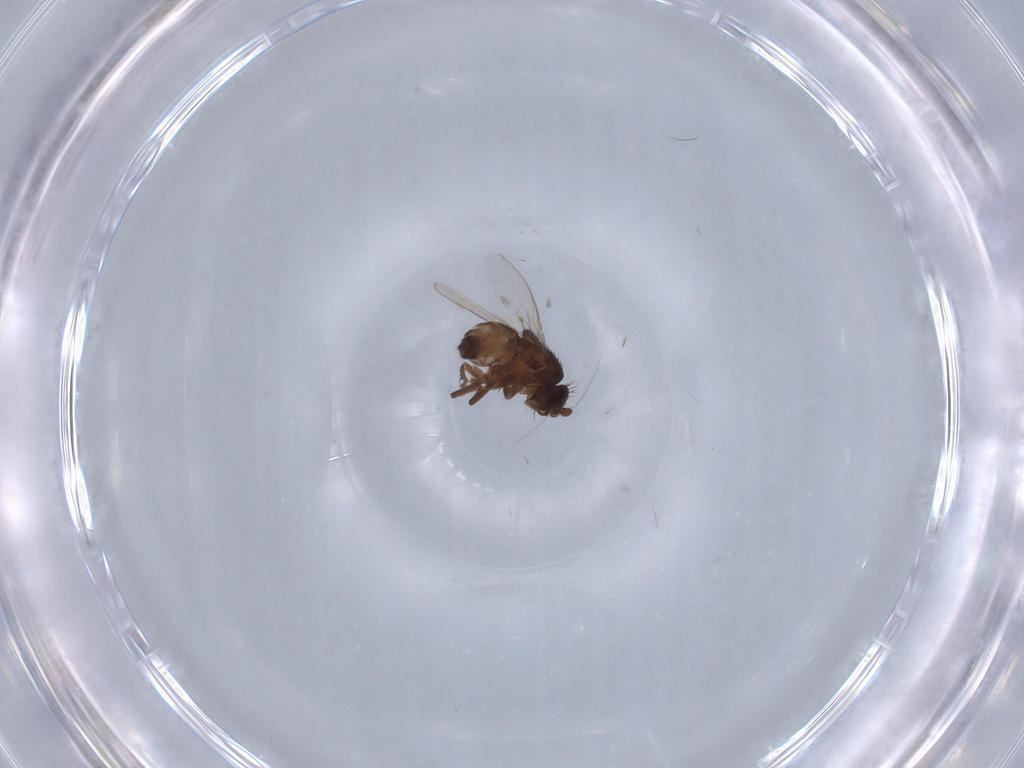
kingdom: Animalia
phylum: Arthropoda
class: Insecta
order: Diptera
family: Sphaeroceridae
